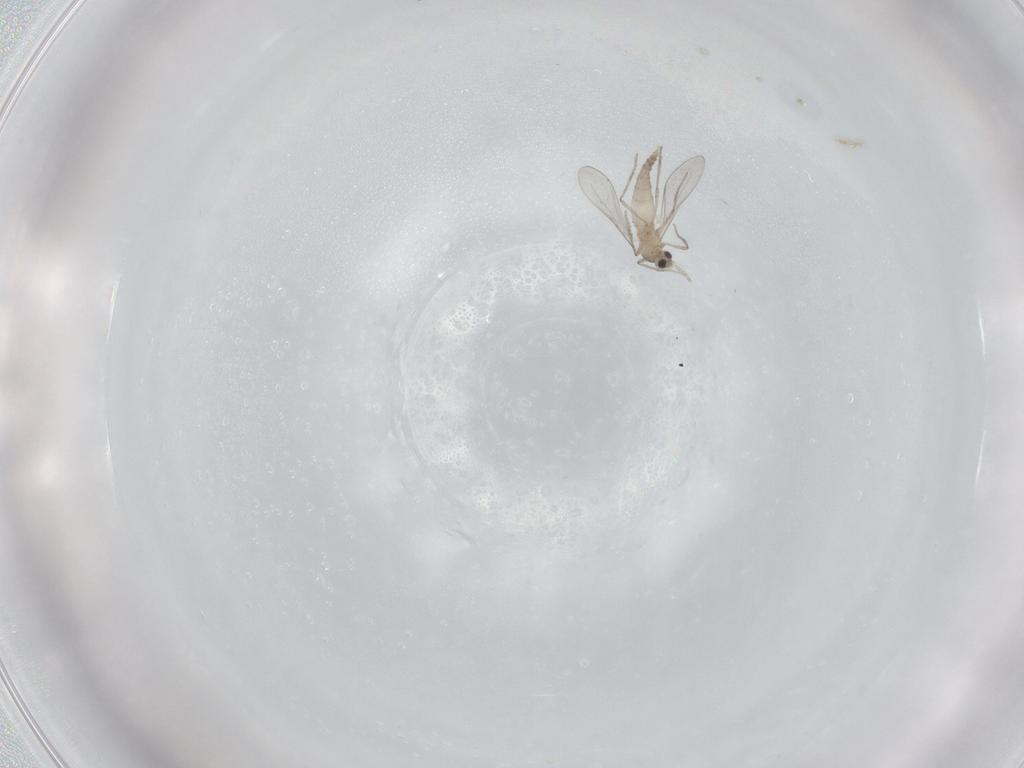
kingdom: Animalia
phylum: Arthropoda
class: Insecta
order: Diptera
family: Cecidomyiidae
